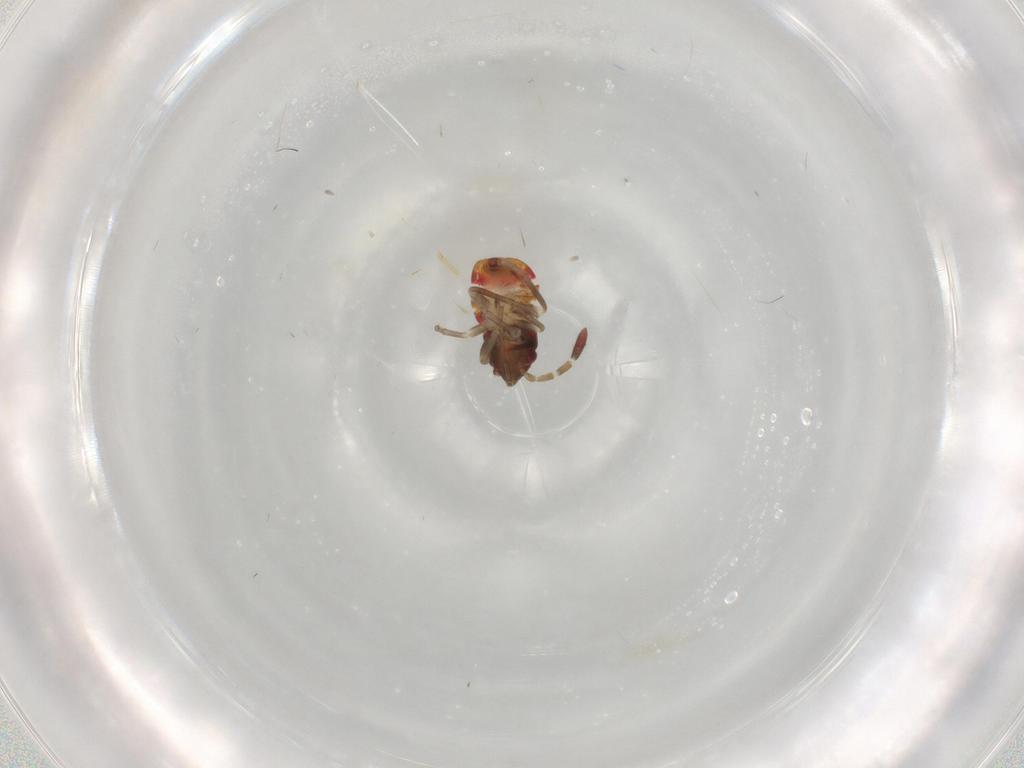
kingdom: Animalia
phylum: Arthropoda
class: Insecta
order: Hemiptera
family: Rhyparochromidae
